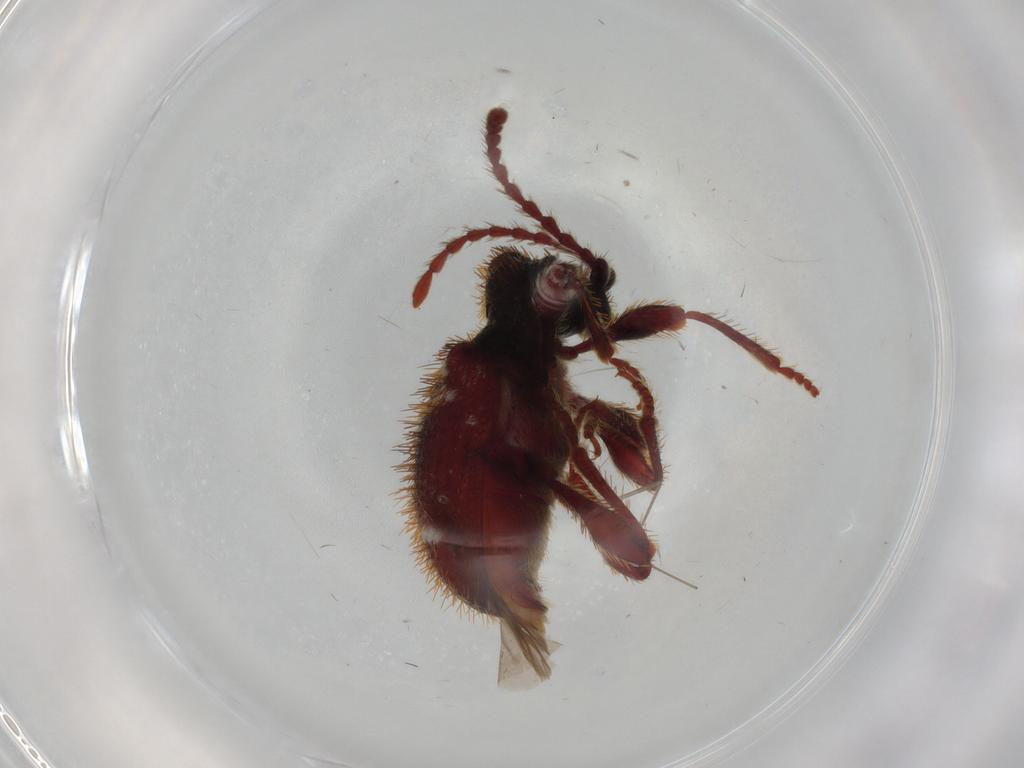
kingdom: Animalia
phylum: Arthropoda
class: Insecta
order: Coleoptera
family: Ptinidae
